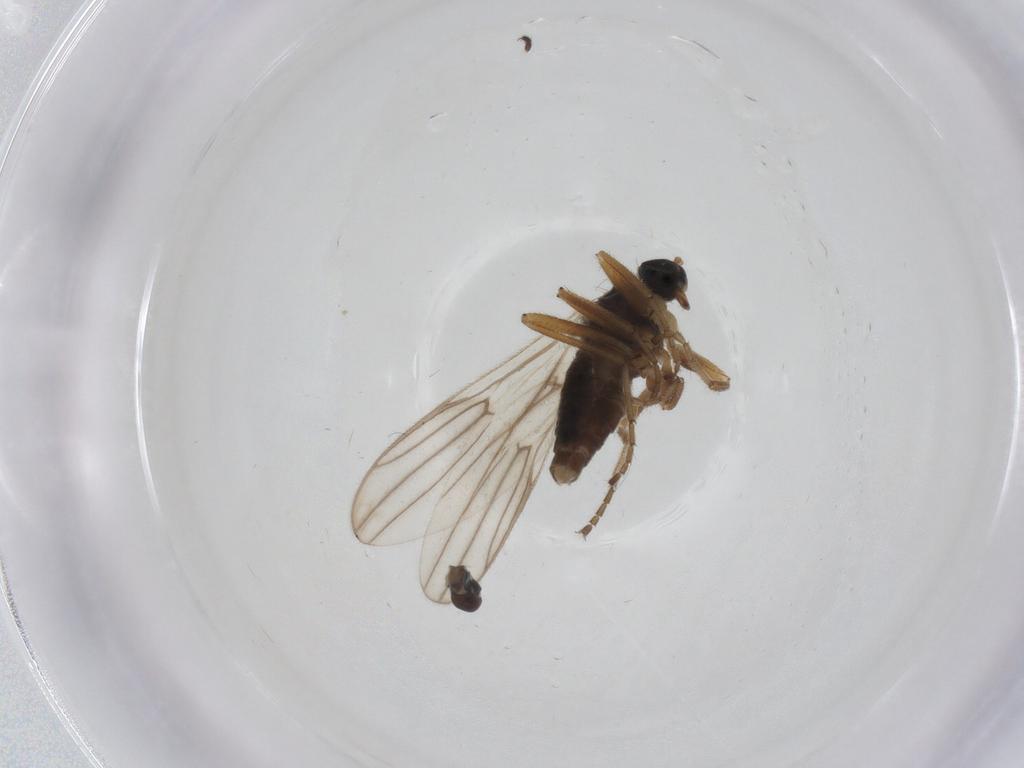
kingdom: Animalia
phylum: Arthropoda
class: Insecta
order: Diptera
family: Hybotidae
